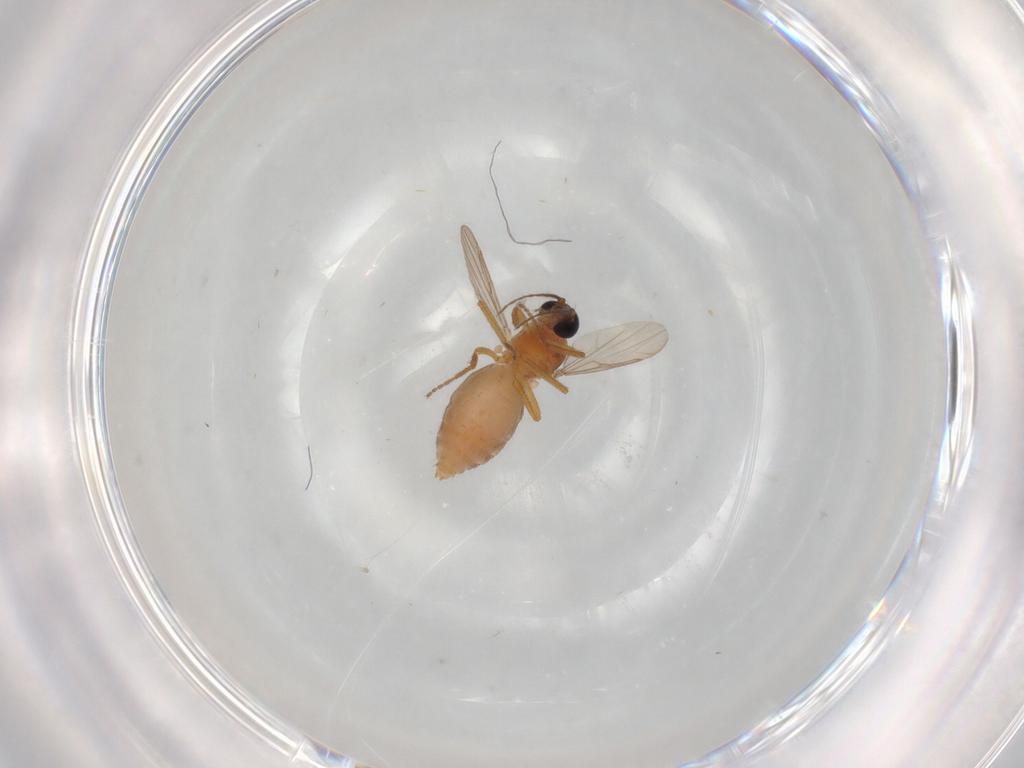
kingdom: Animalia
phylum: Arthropoda
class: Insecta
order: Diptera
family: Ceratopogonidae
